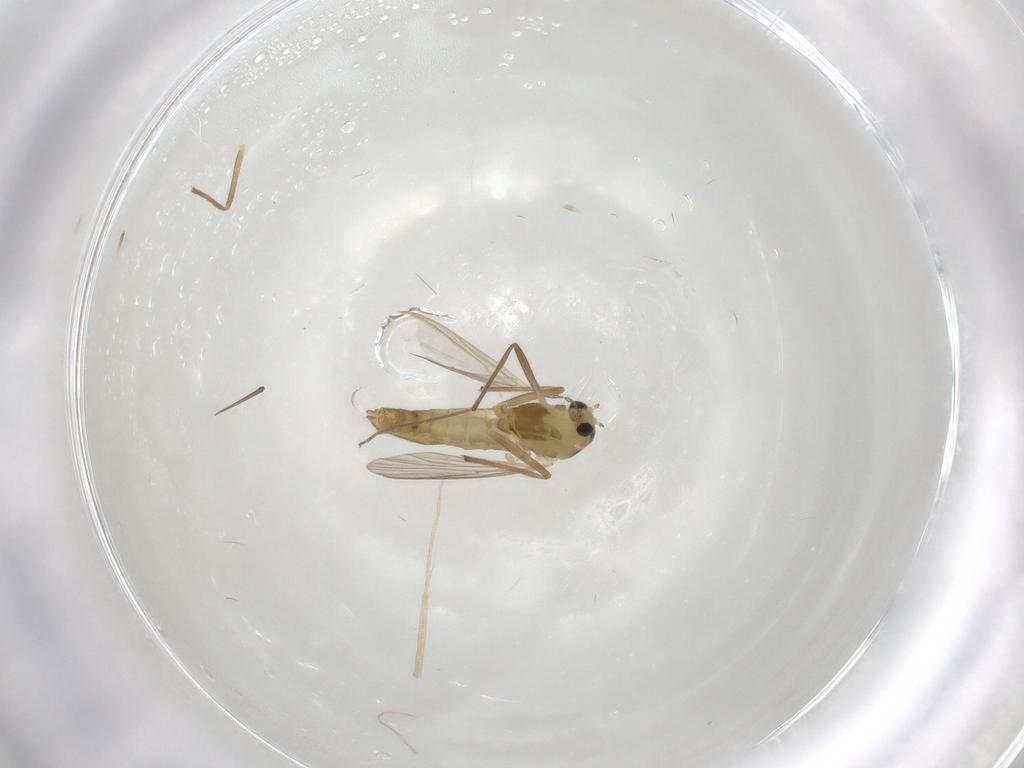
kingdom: Animalia
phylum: Arthropoda
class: Insecta
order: Diptera
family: Chironomidae
